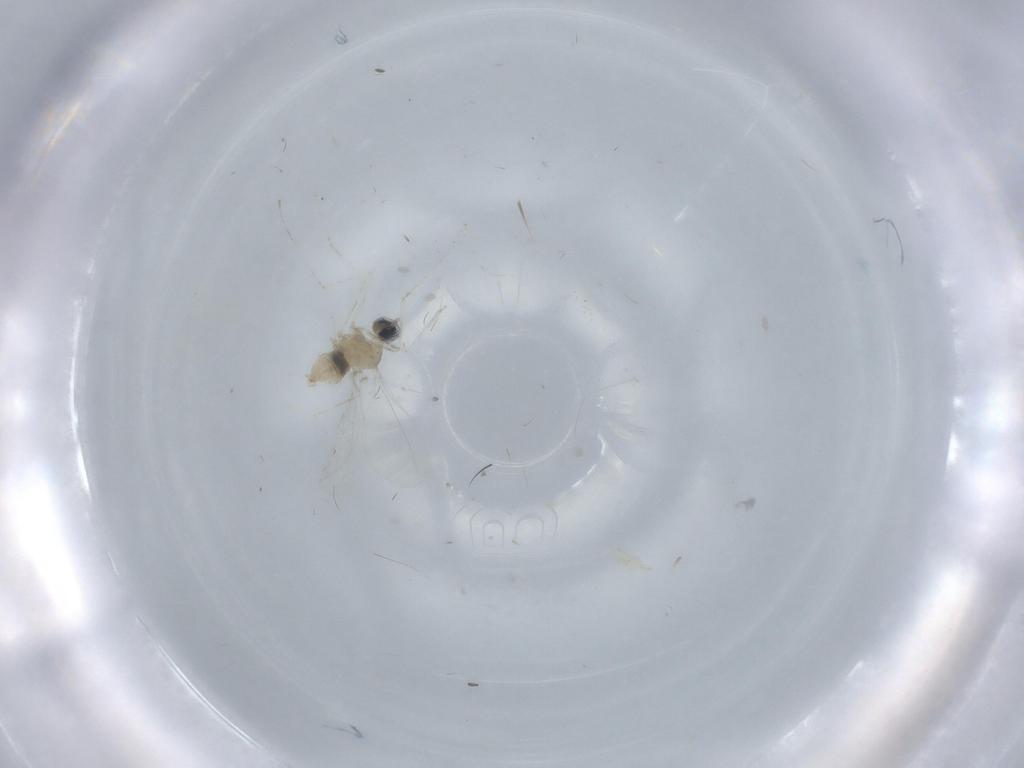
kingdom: Animalia
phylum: Arthropoda
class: Insecta
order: Diptera
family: Cecidomyiidae
